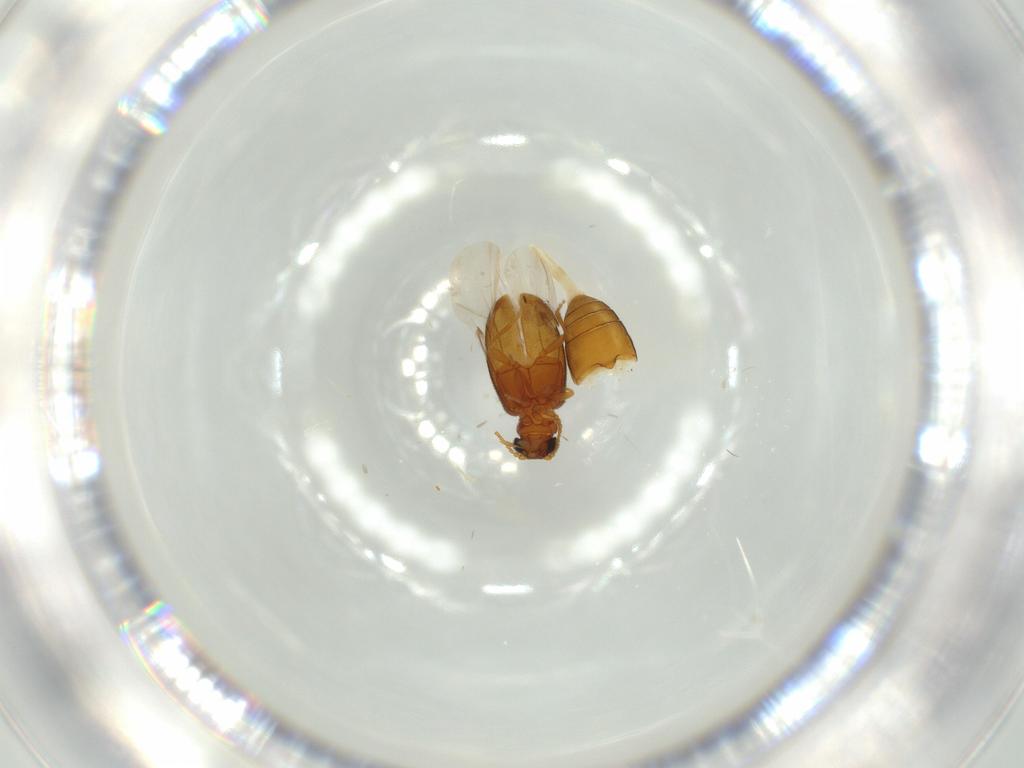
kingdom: Animalia
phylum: Arthropoda
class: Insecta
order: Coleoptera
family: Aderidae
